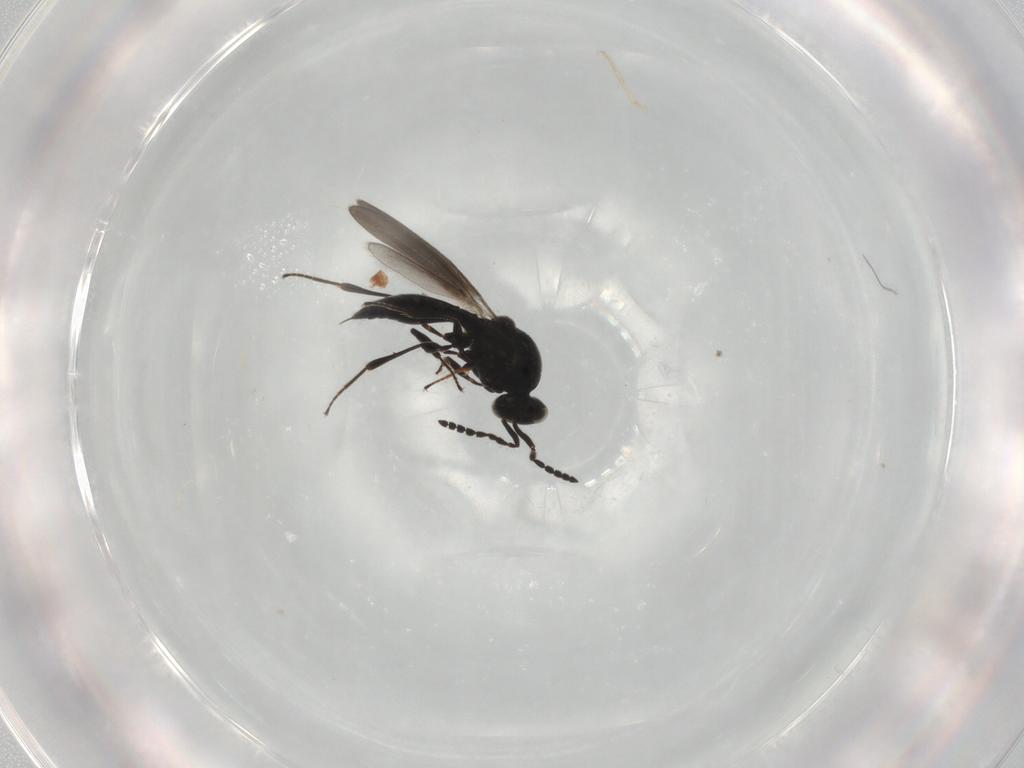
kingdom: Animalia
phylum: Arthropoda
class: Insecta
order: Hymenoptera
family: Platygastridae
